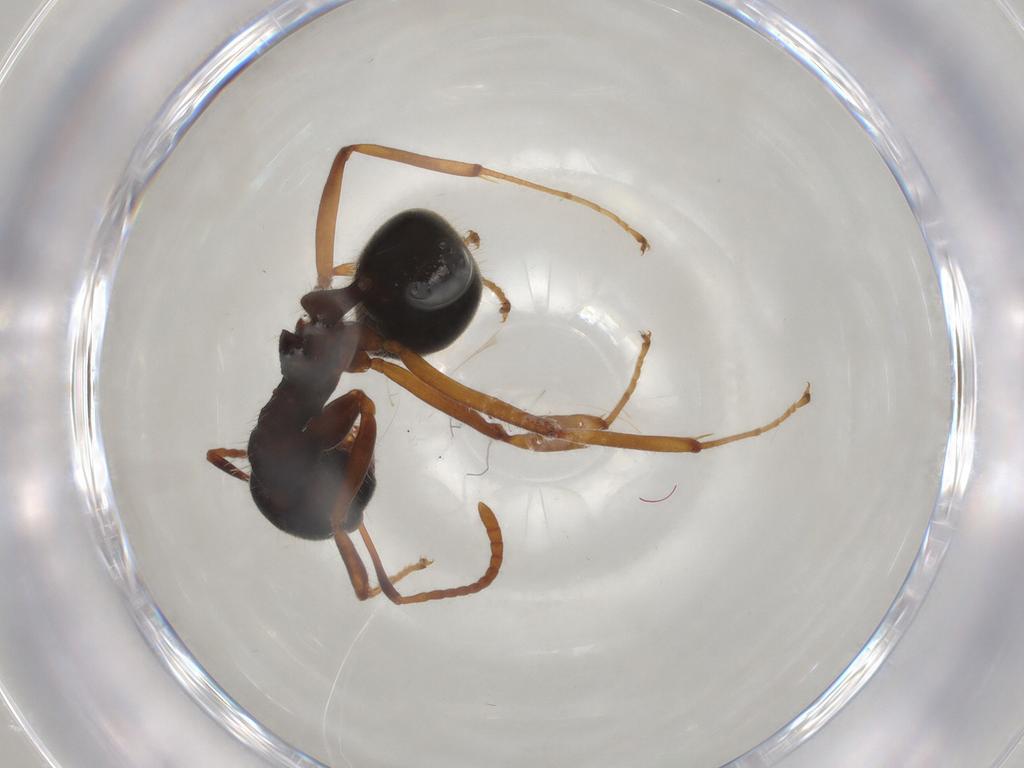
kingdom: Animalia
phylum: Arthropoda
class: Insecta
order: Hymenoptera
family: Formicidae
